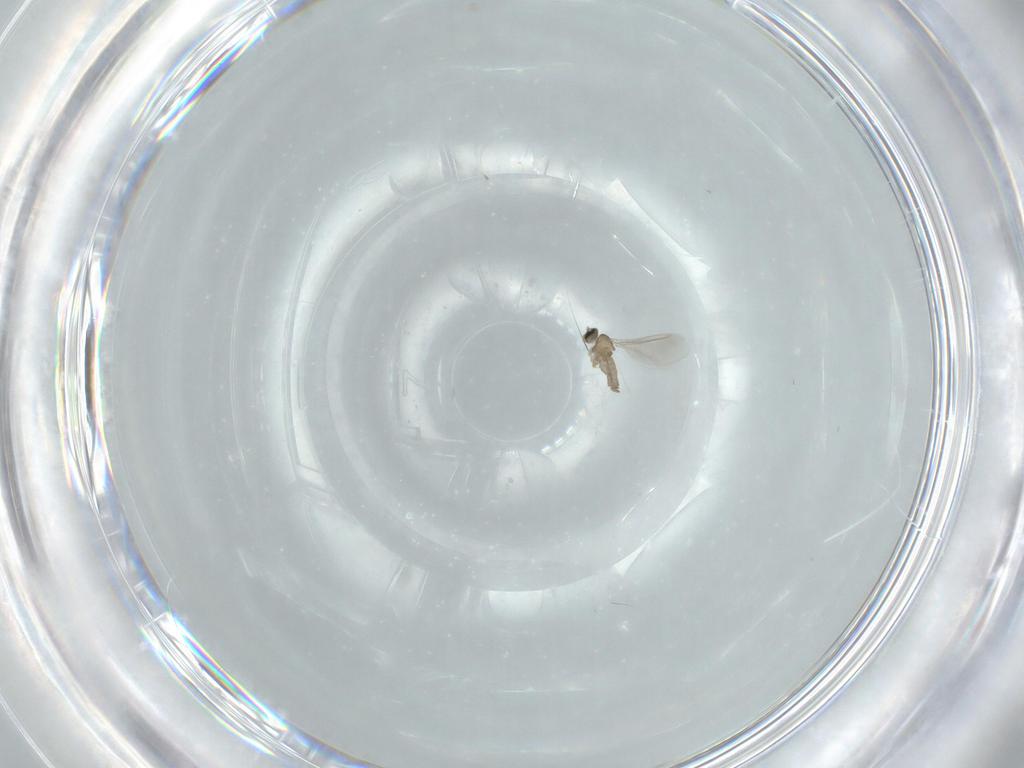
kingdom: Animalia
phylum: Arthropoda
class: Insecta
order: Diptera
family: Cecidomyiidae
